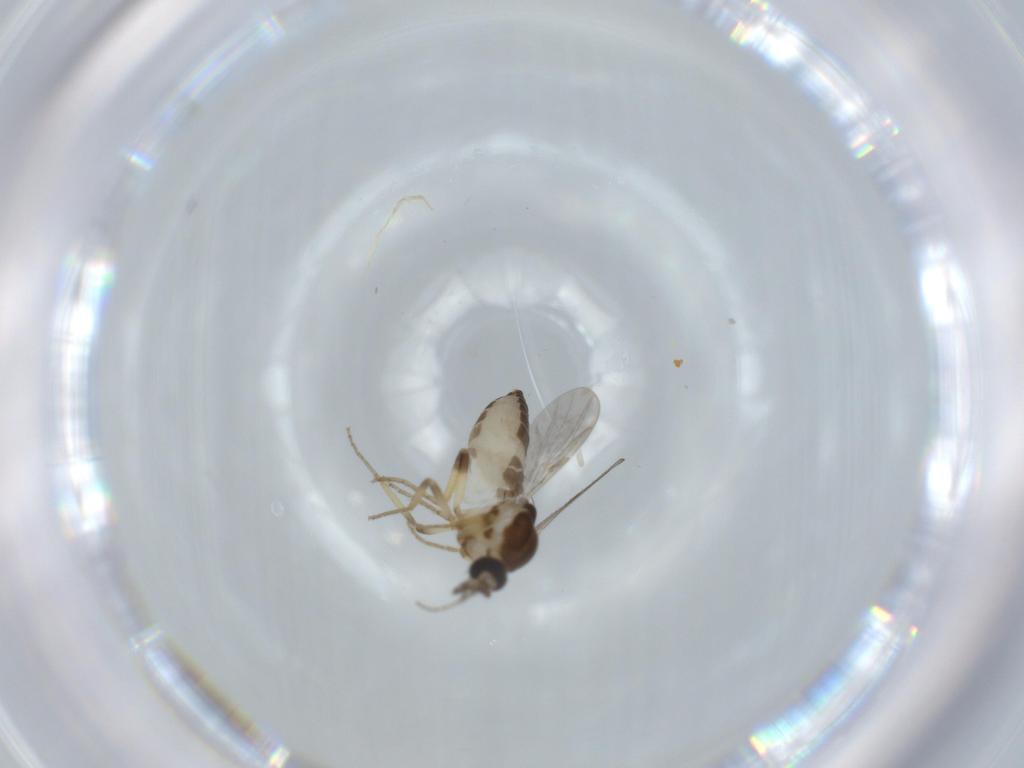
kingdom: Animalia
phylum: Arthropoda
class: Insecta
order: Diptera
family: Ceratopogonidae
